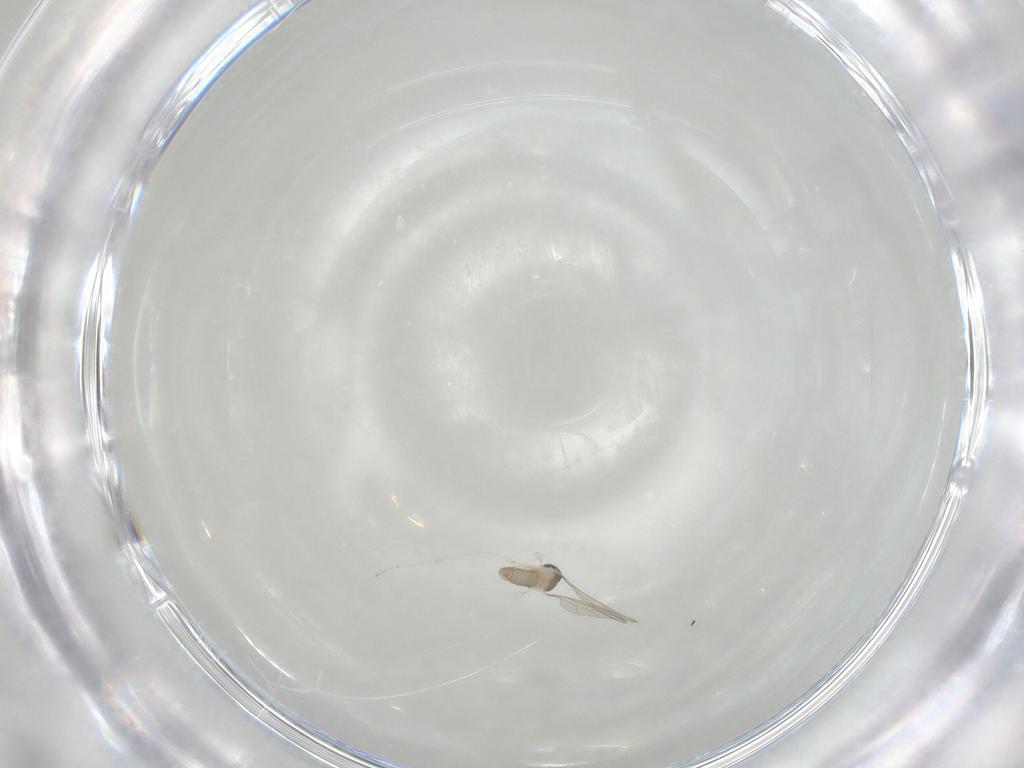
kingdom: Animalia
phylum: Arthropoda
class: Insecta
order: Diptera
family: Cecidomyiidae
